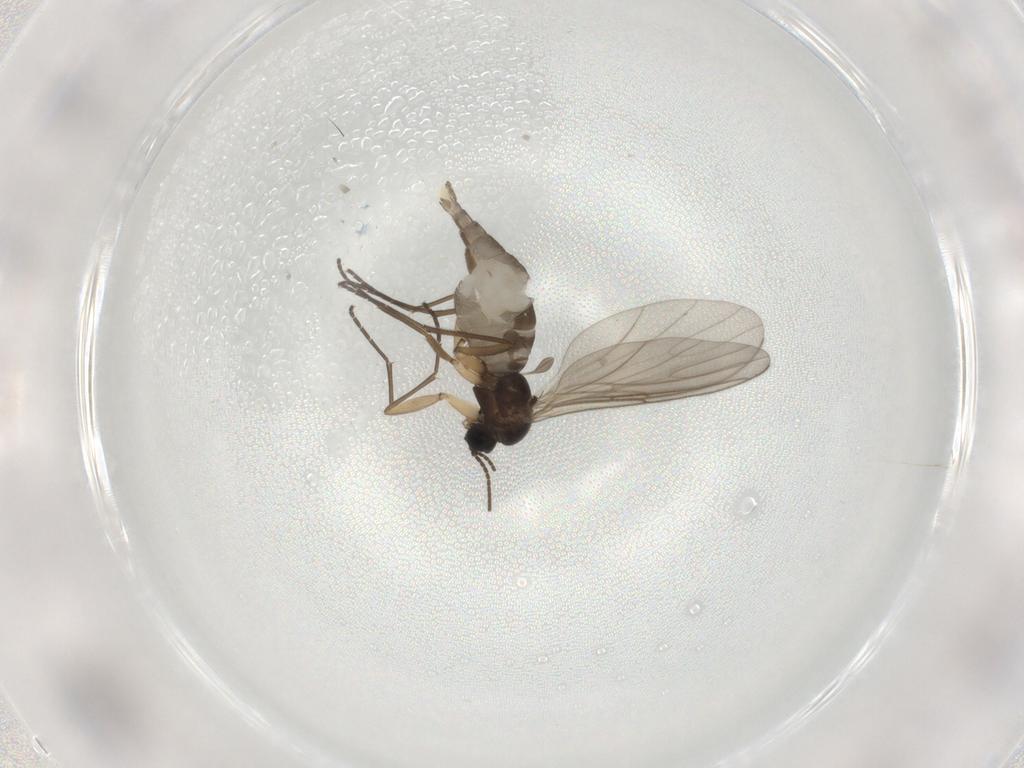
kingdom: Animalia
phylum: Arthropoda
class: Insecta
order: Diptera
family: Sciaridae
